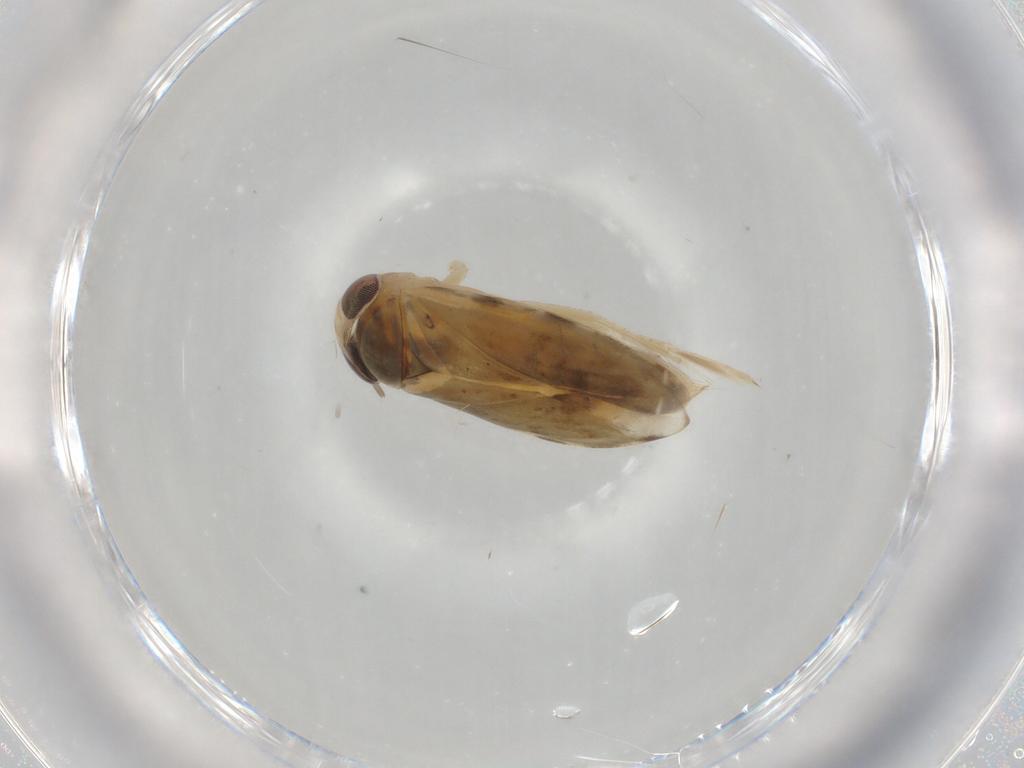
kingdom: Animalia
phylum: Arthropoda
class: Insecta
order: Hemiptera
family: Corixidae
